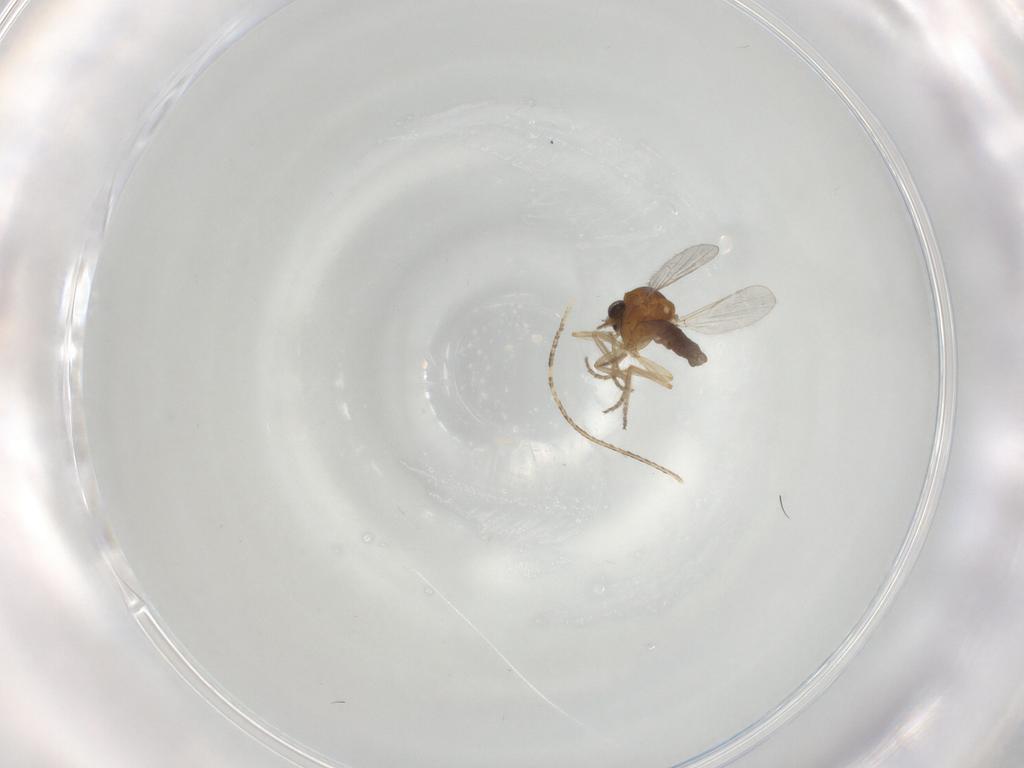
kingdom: Animalia
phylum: Arthropoda
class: Insecta
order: Diptera
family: Ceratopogonidae
